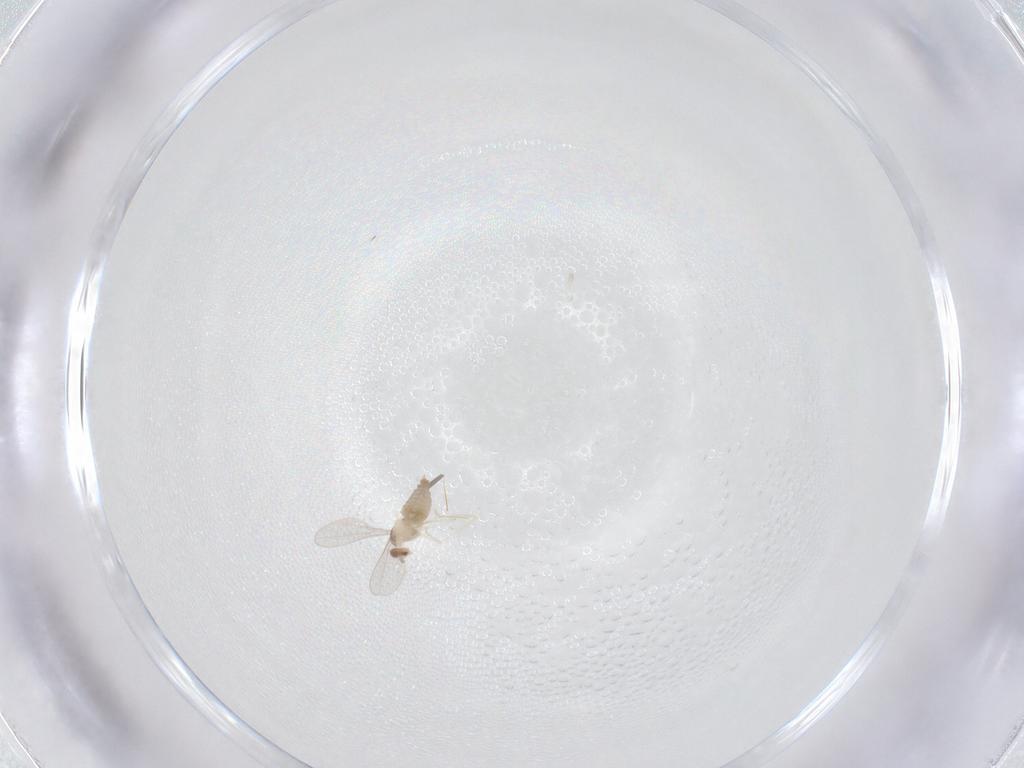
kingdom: Animalia
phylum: Arthropoda
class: Insecta
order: Diptera
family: Cecidomyiidae
